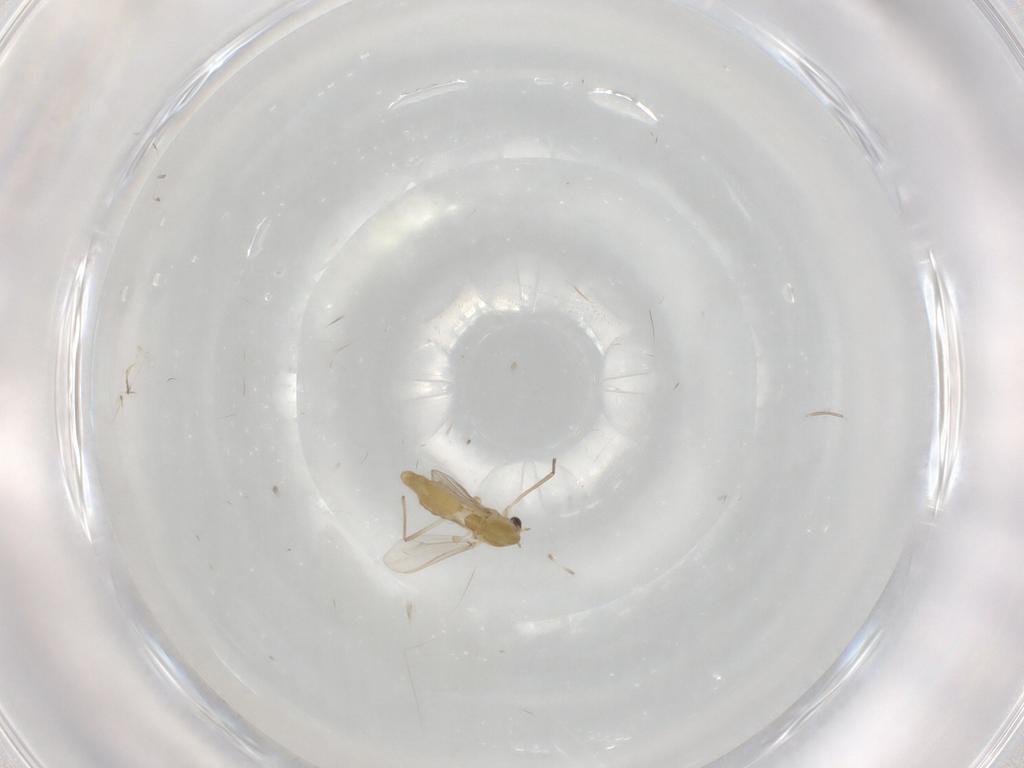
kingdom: Animalia
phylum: Arthropoda
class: Insecta
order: Diptera
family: Chironomidae
